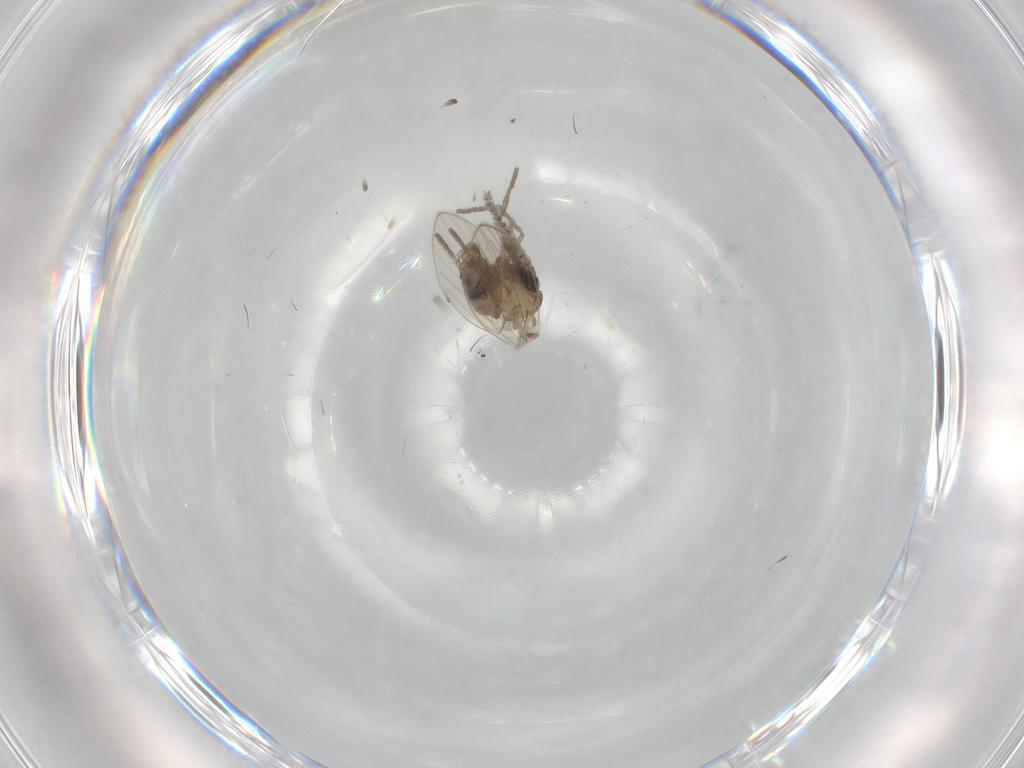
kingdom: Animalia
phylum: Arthropoda
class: Insecta
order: Diptera
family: Psychodidae
